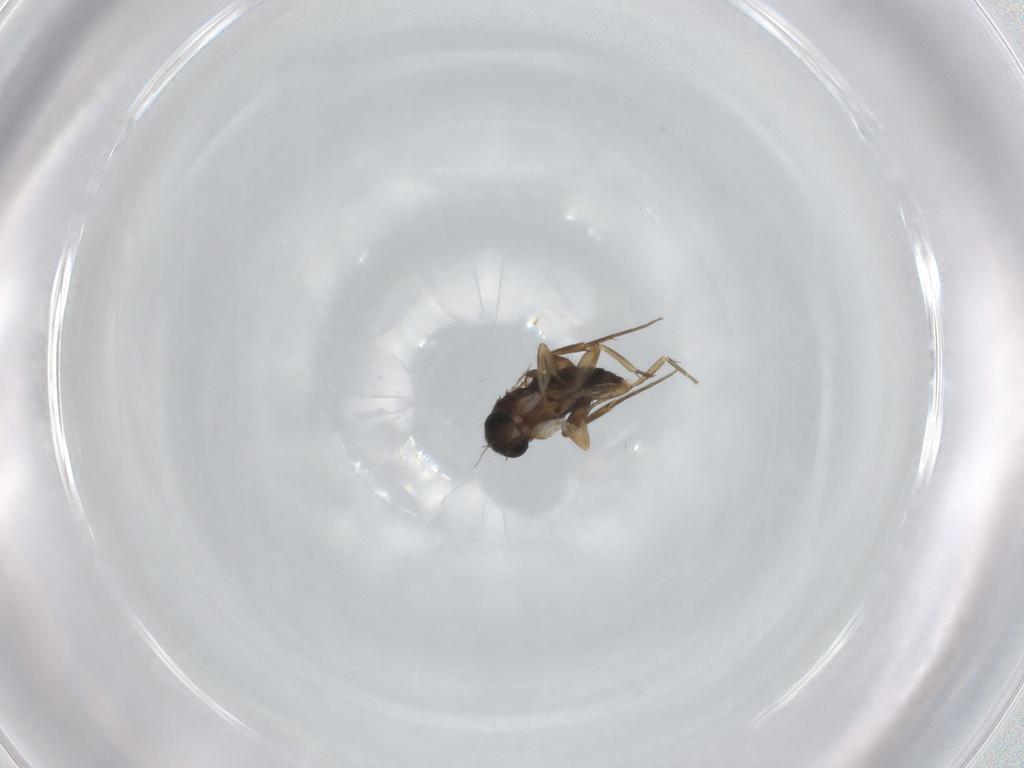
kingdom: Animalia
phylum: Arthropoda
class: Insecta
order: Diptera
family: Phoridae
